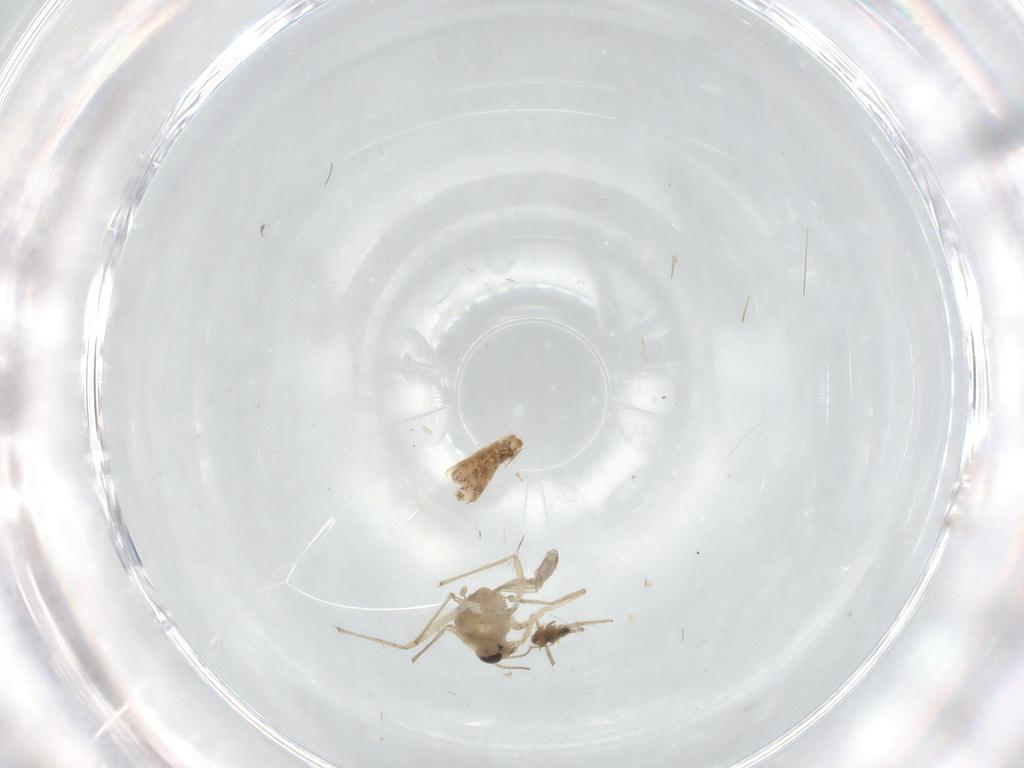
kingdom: Animalia
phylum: Arthropoda
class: Insecta
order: Diptera
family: Chironomidae
